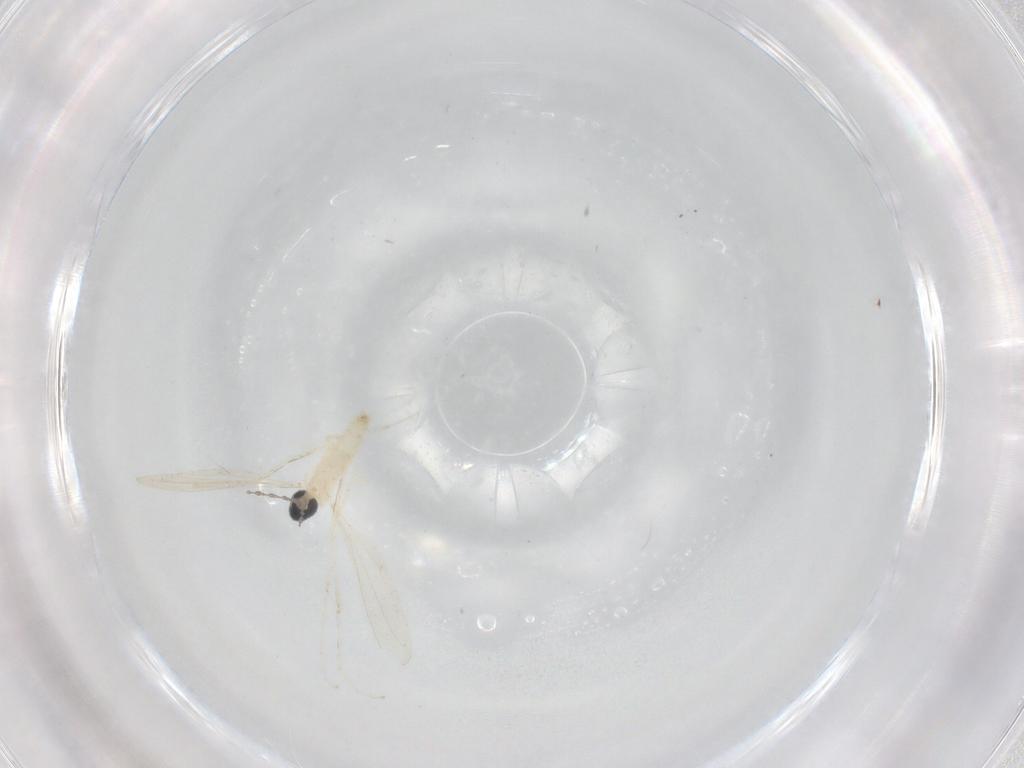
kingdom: Animalia
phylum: Arthropoda
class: Insecta
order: Diptera
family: Cecidomyiidae
